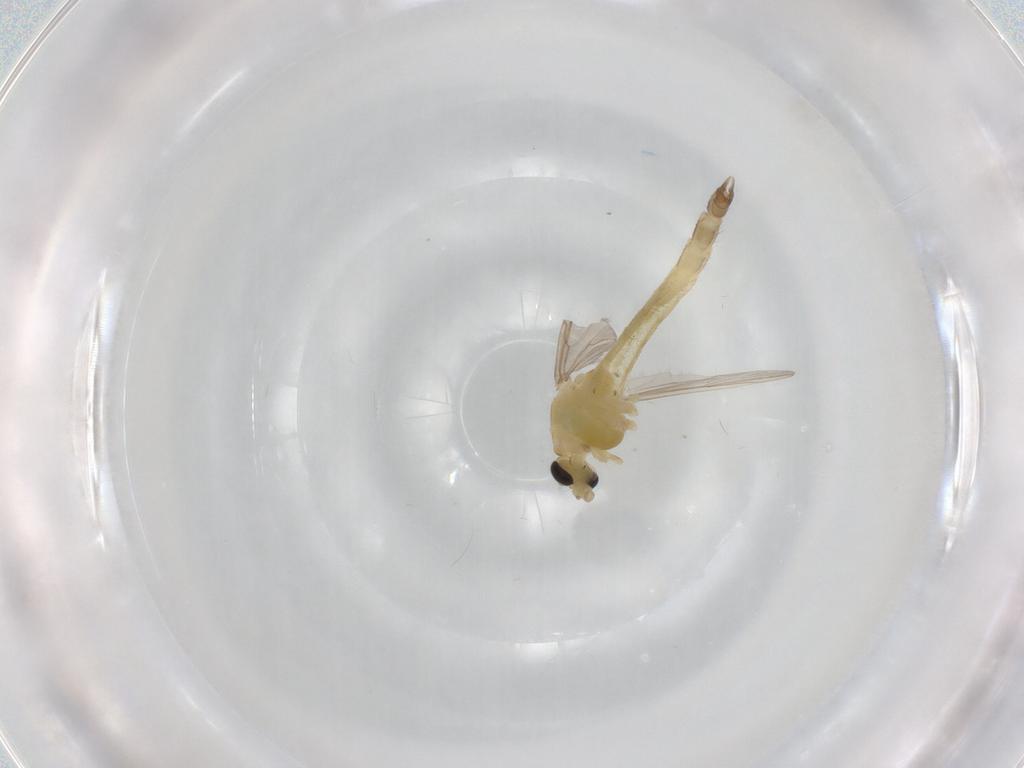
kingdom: Animalia
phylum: Arthropoda
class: Insecta
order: Diptera
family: Chironomidae
